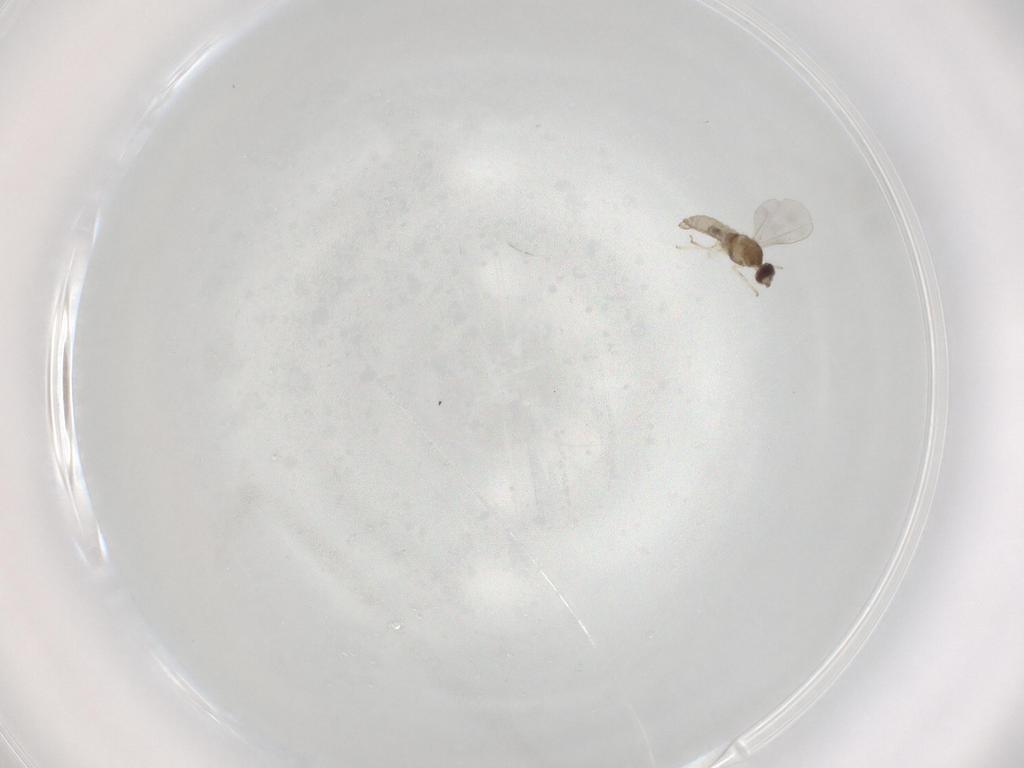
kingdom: Animalia
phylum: Arthropoda
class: Insecta
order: Diptera
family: Cecidomyiidae
